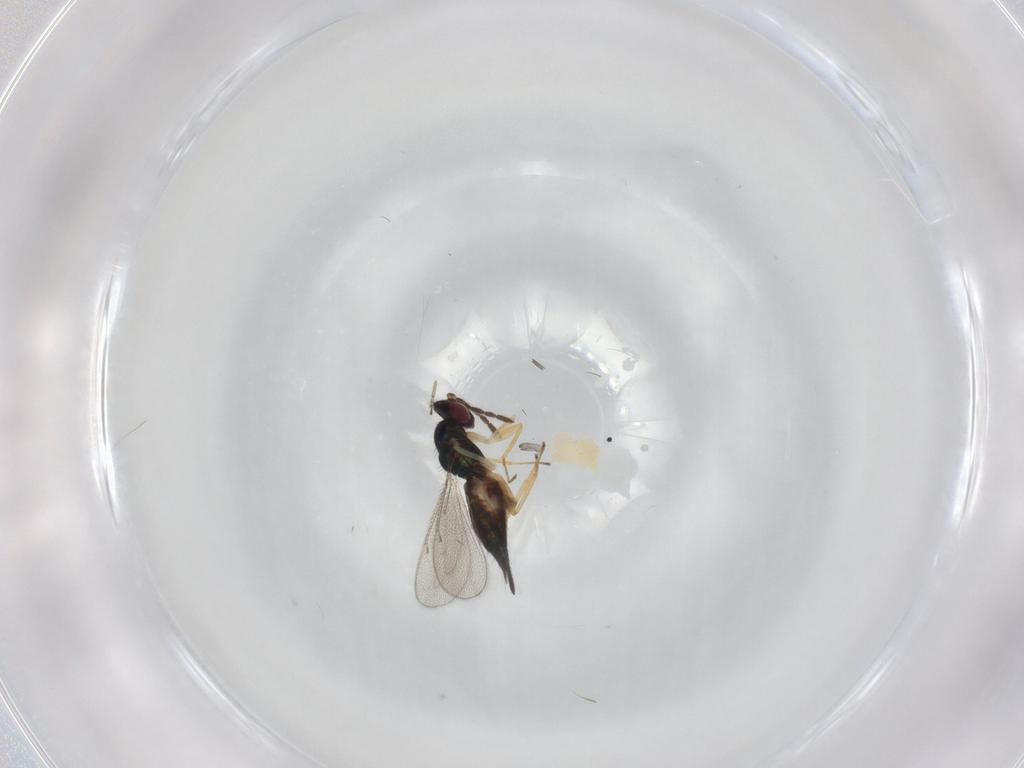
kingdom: Animalia
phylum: Arthropoda
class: Insecta
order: Hymenoptera
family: Eulophidae
